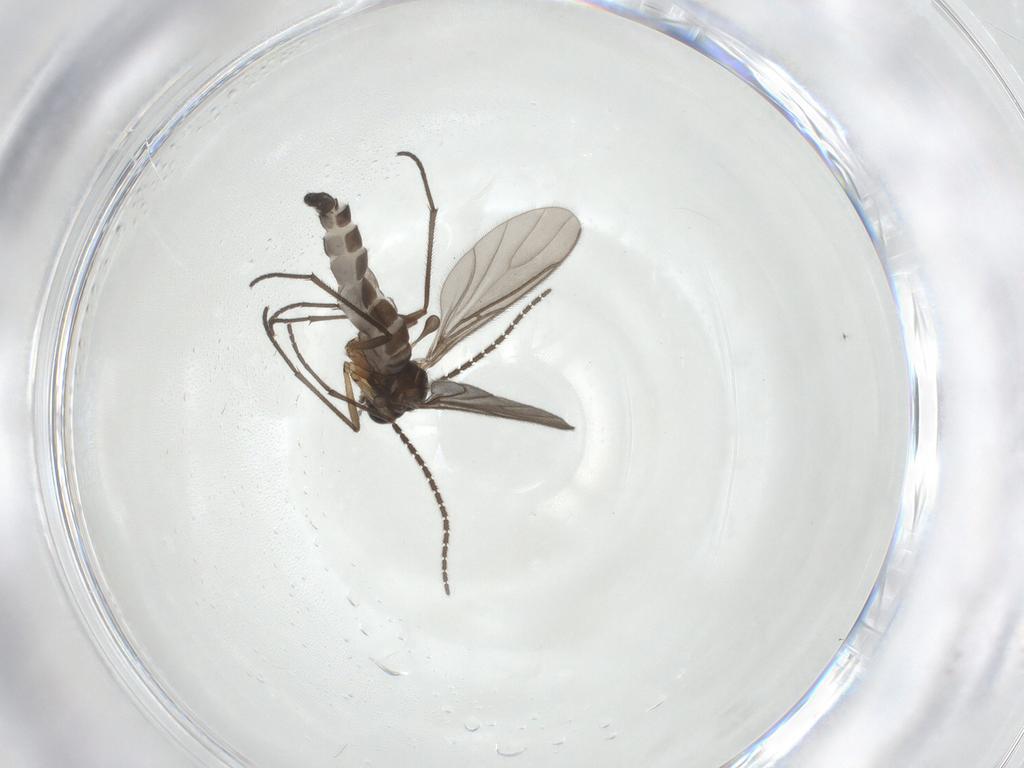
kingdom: Animalia
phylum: Arthropoda
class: Insecta
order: Diptera
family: Sciaridae
